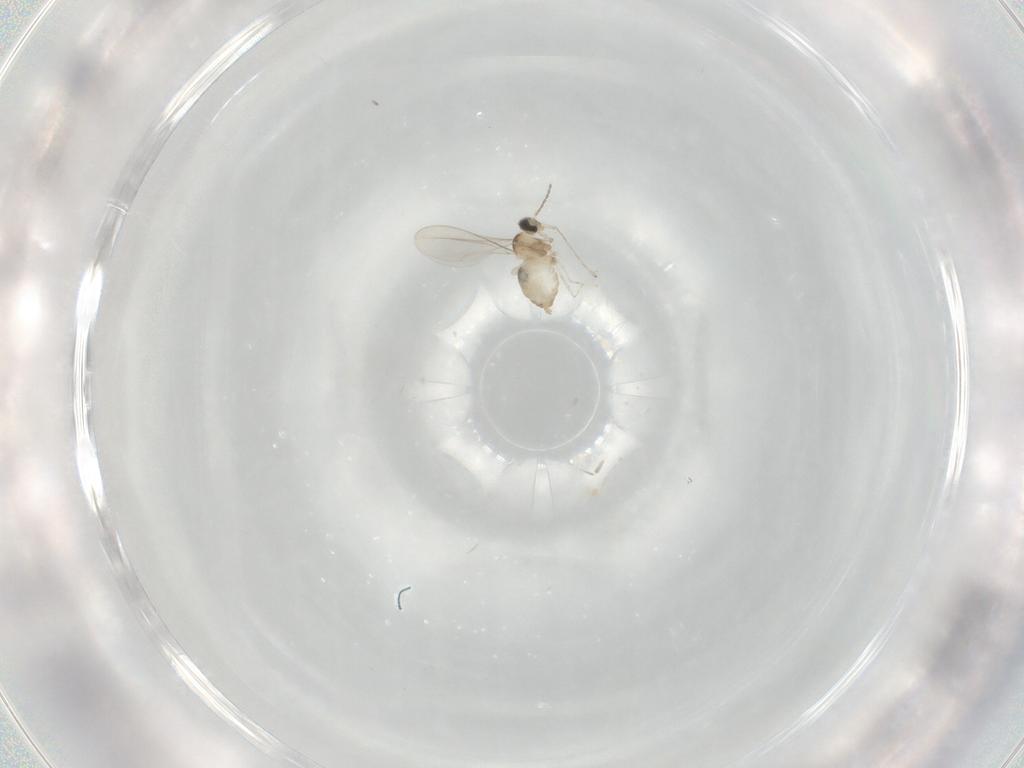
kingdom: Animalia
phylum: Arthropoda
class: Insecta
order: Diptera
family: Cecidomyiidae
